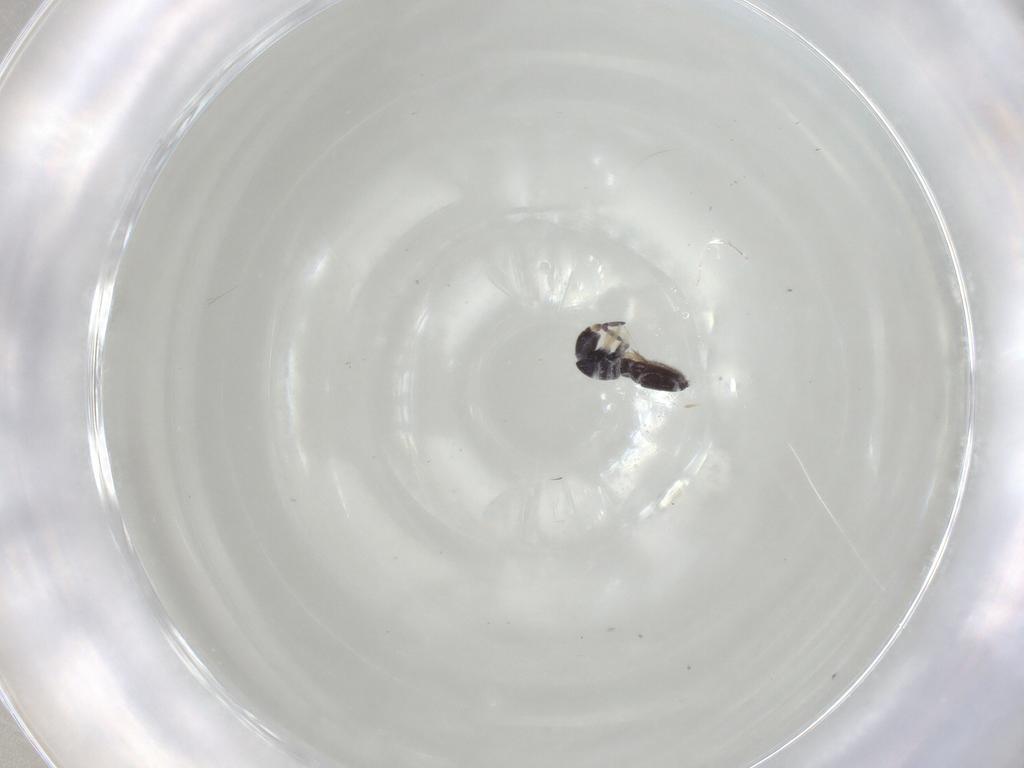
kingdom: Animalia
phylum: Arthropoda
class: Collembola
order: Entomobryomorpha
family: Entomobryidae
